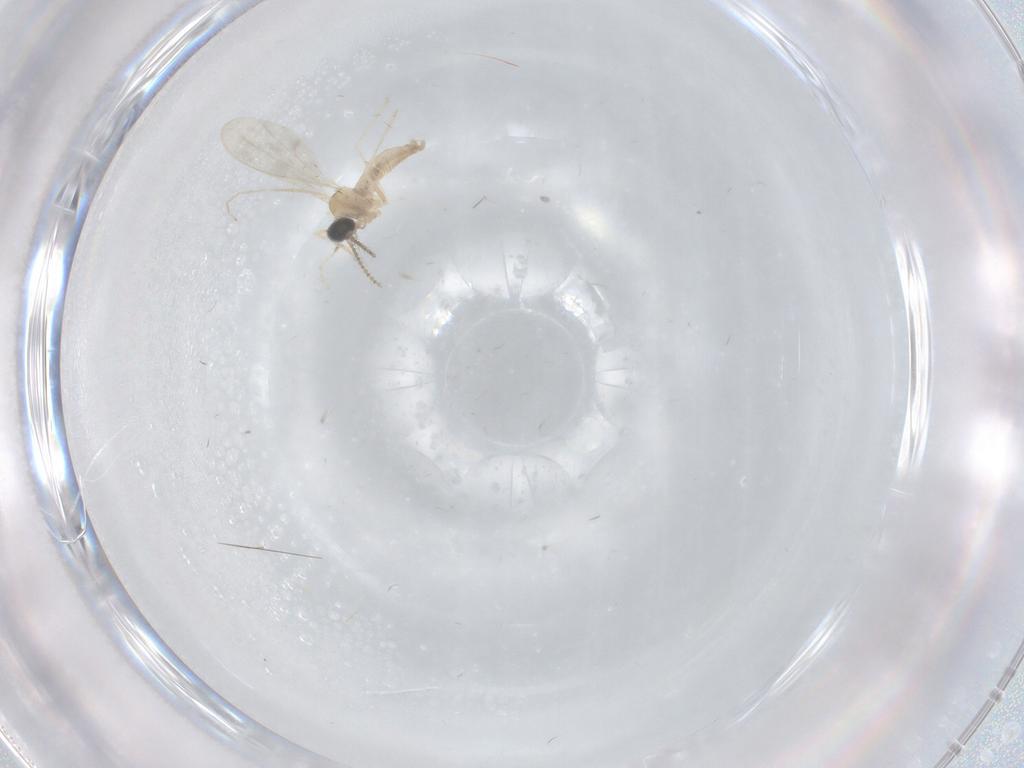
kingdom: Animalia
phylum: Arthropoda
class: Insecta
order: Diptera
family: Cecidomyiidae
